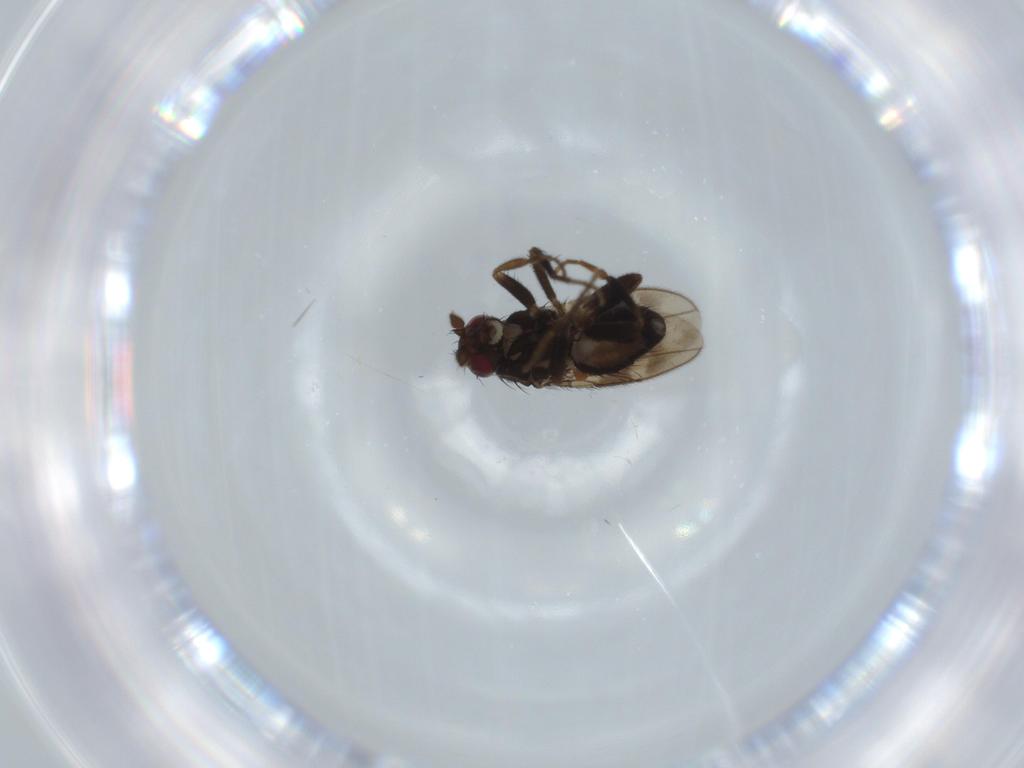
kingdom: Animalia
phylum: Arthropoda
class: Insecta
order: Diptera
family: Sphaeroceridae
